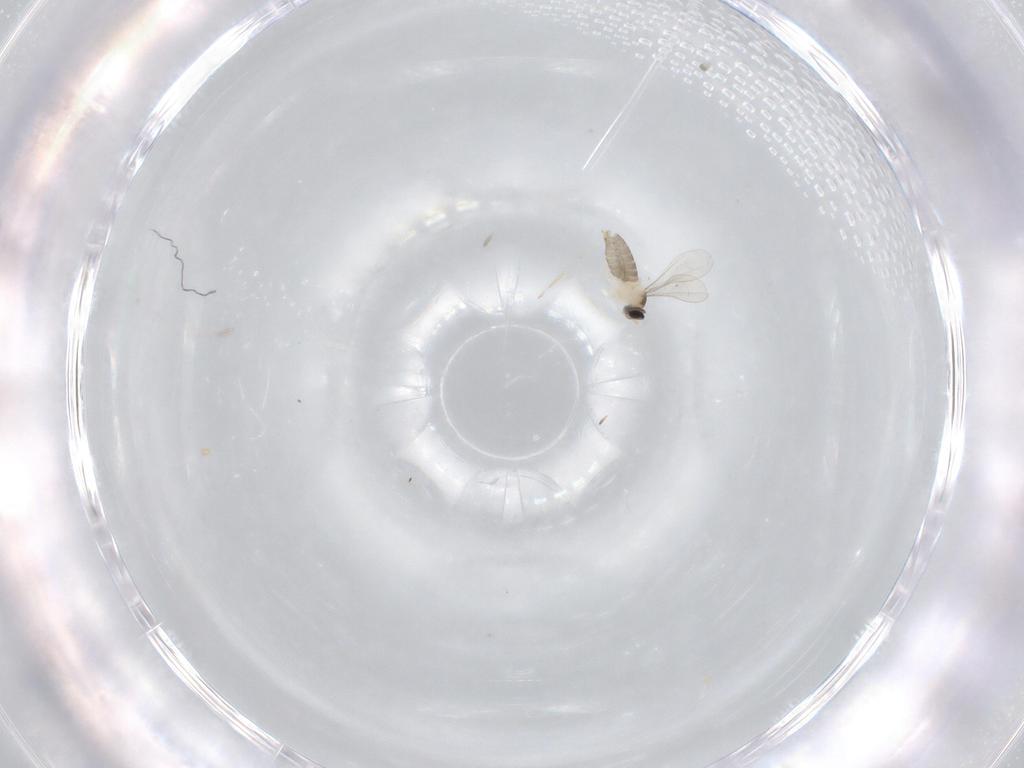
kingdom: Animalia
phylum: Arthropoda
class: Insecta
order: Diptera
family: Cecidomyiidae
